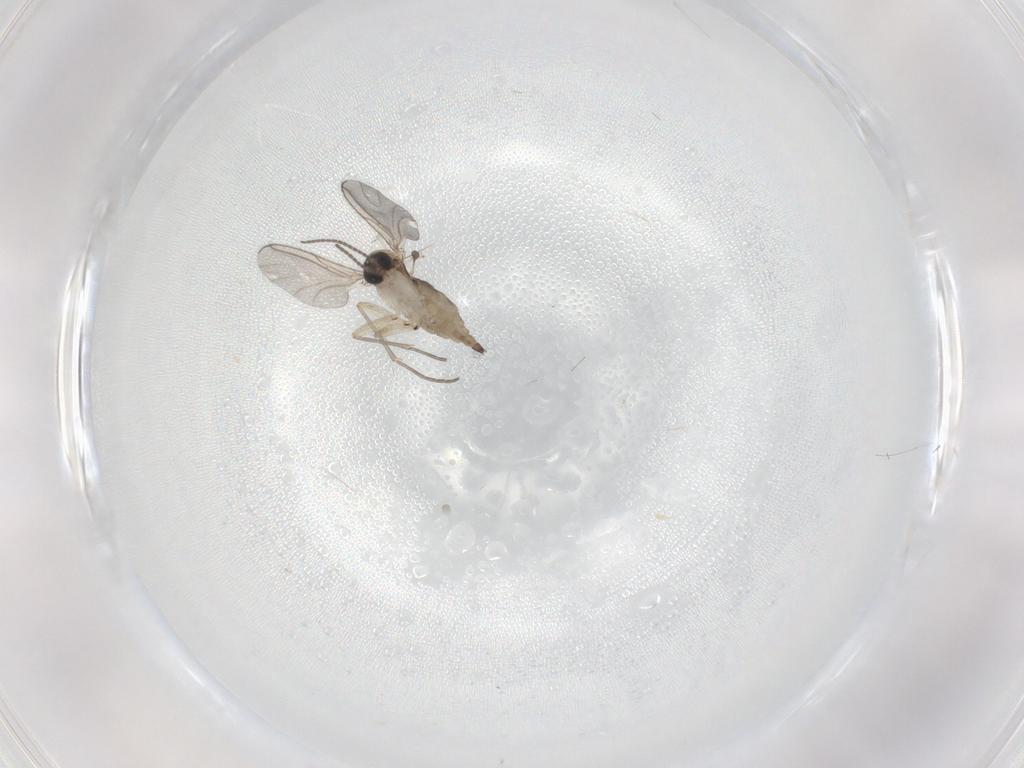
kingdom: Animalia
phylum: Arthropoda
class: Insecta
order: Diptera
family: Sciaridae
